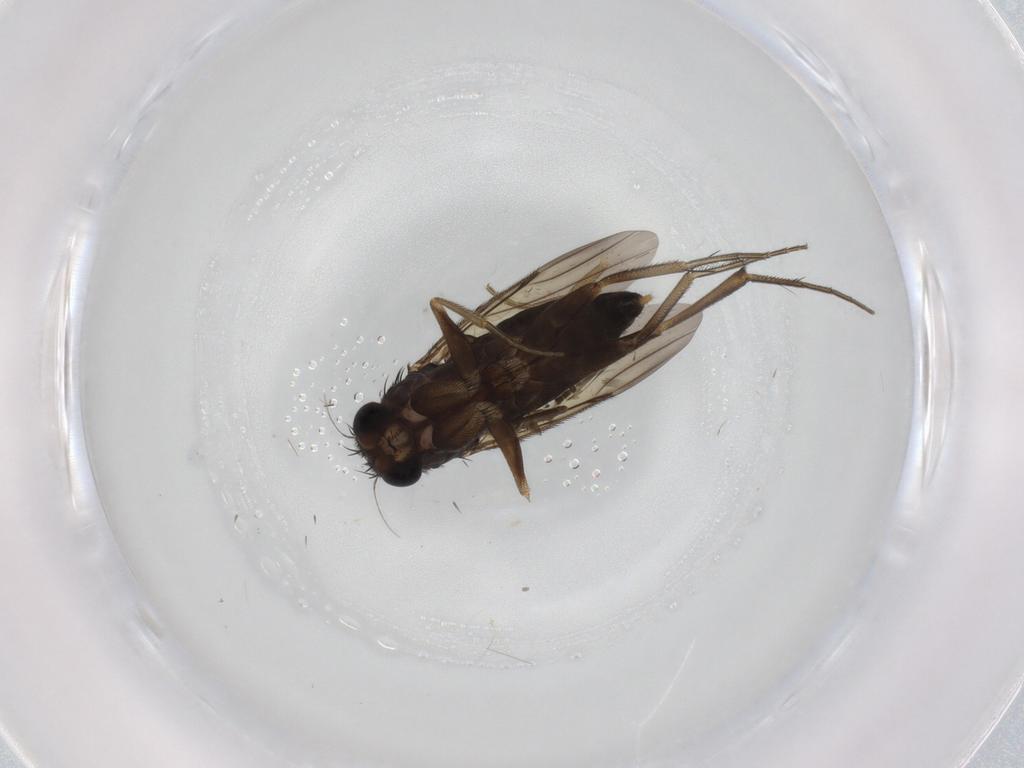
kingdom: Animalia
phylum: Arthropoda
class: Insecta
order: Diptera
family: Phoridae
